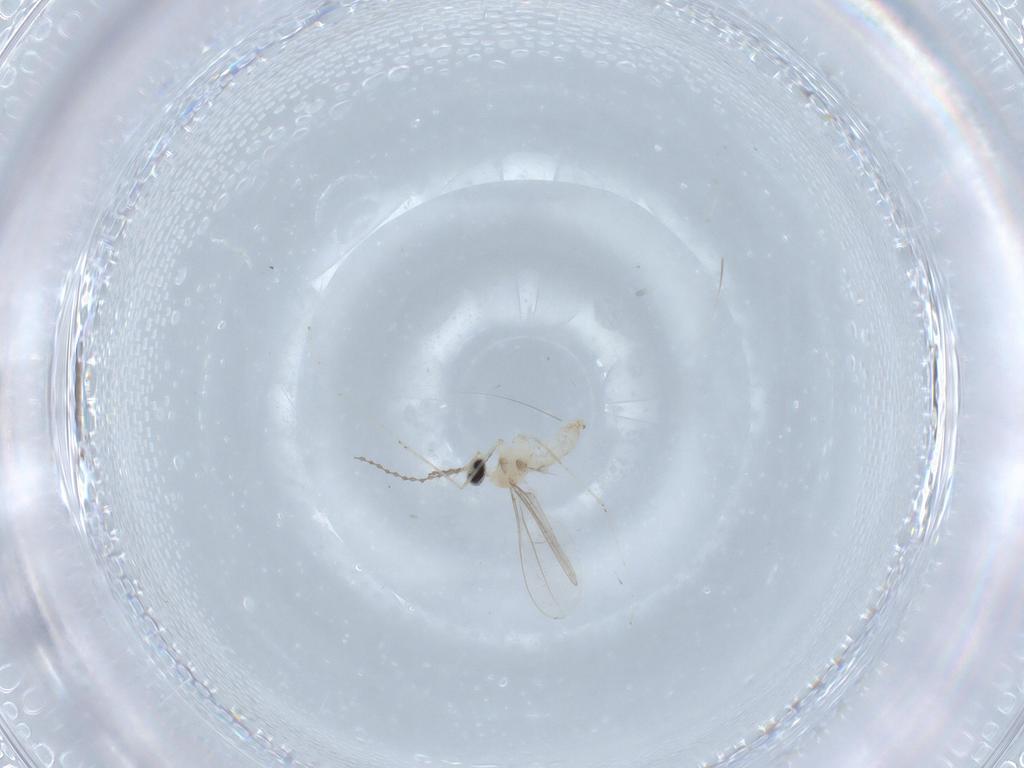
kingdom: Animalia
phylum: Arthropoda
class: Insecta
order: Diptera
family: Cecidomyiidae
